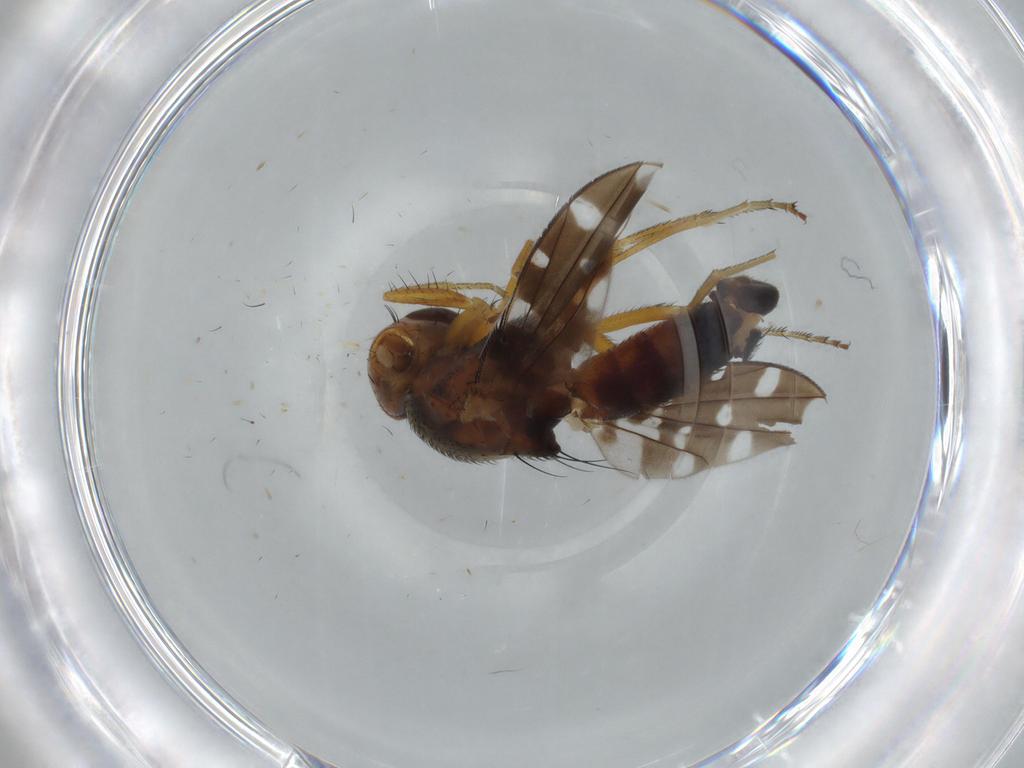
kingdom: Animalia
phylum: Arthropoda
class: Insecta
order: Diptera
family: Ephydridae
